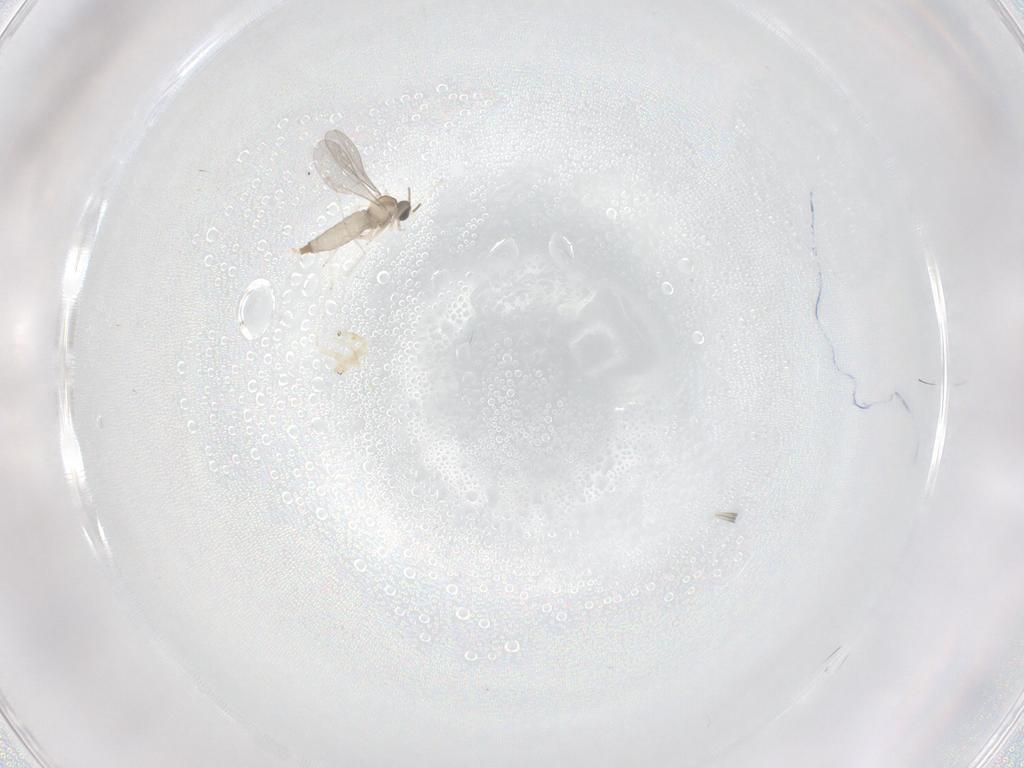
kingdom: Animalia
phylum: Arthropoda
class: Insecta
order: Diptera
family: Cecidomyiidae
